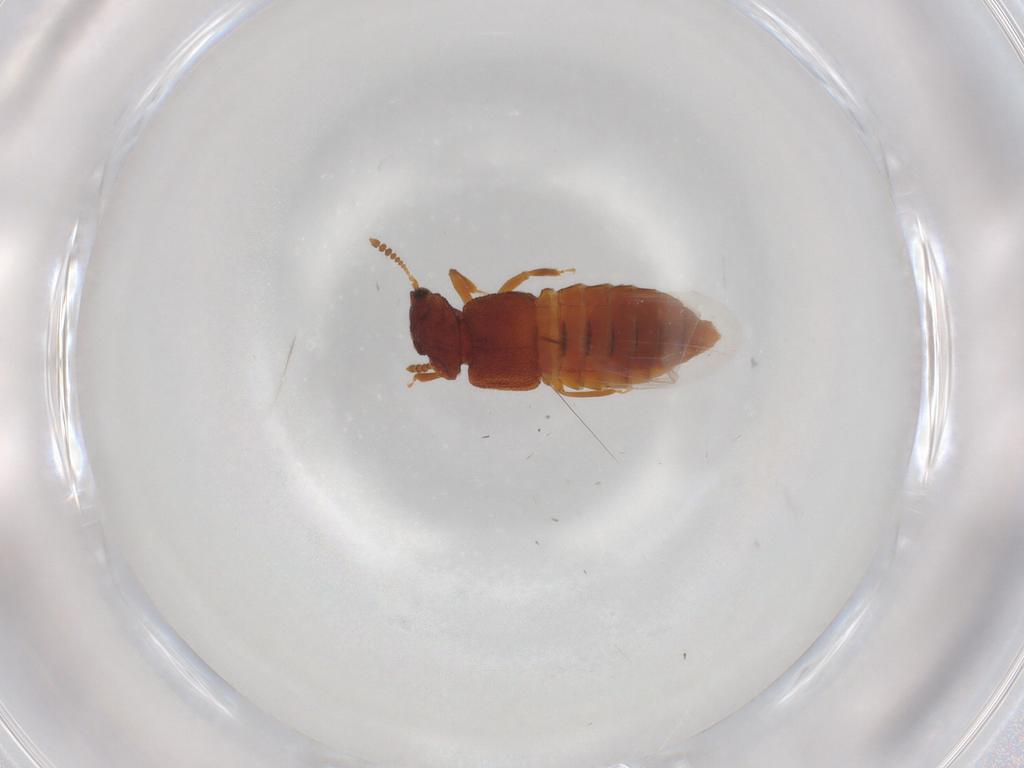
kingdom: Animalia
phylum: Arthropoda
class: Insecta
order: Coleoptera
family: Staphylinidae
